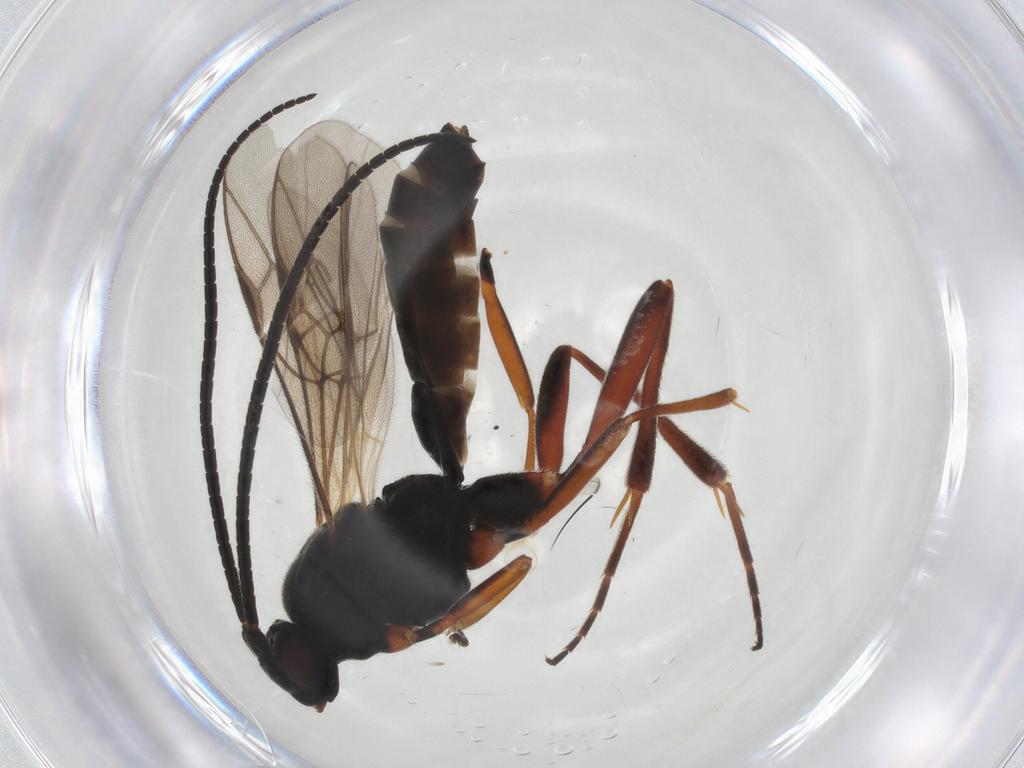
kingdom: Animalia
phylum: Arthropoda
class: Insecta
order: Hymenoptera
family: Braconidae
